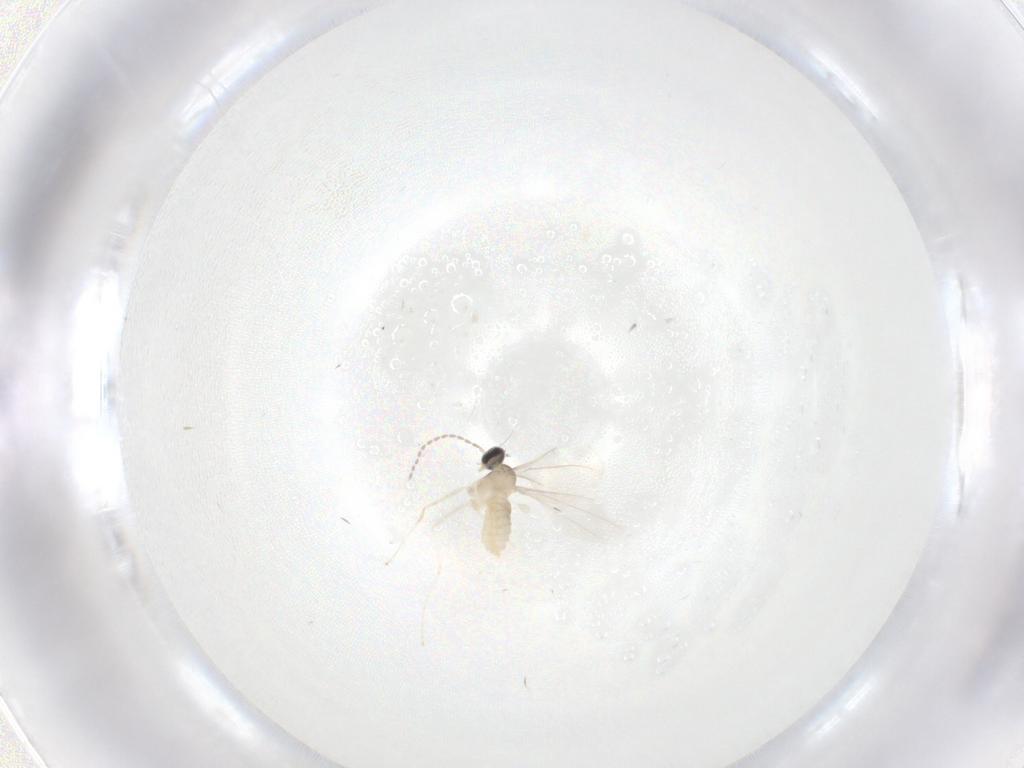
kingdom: Animalia
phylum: Arthropoda
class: Insecta
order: Diptera
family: Cecidomyiidae
